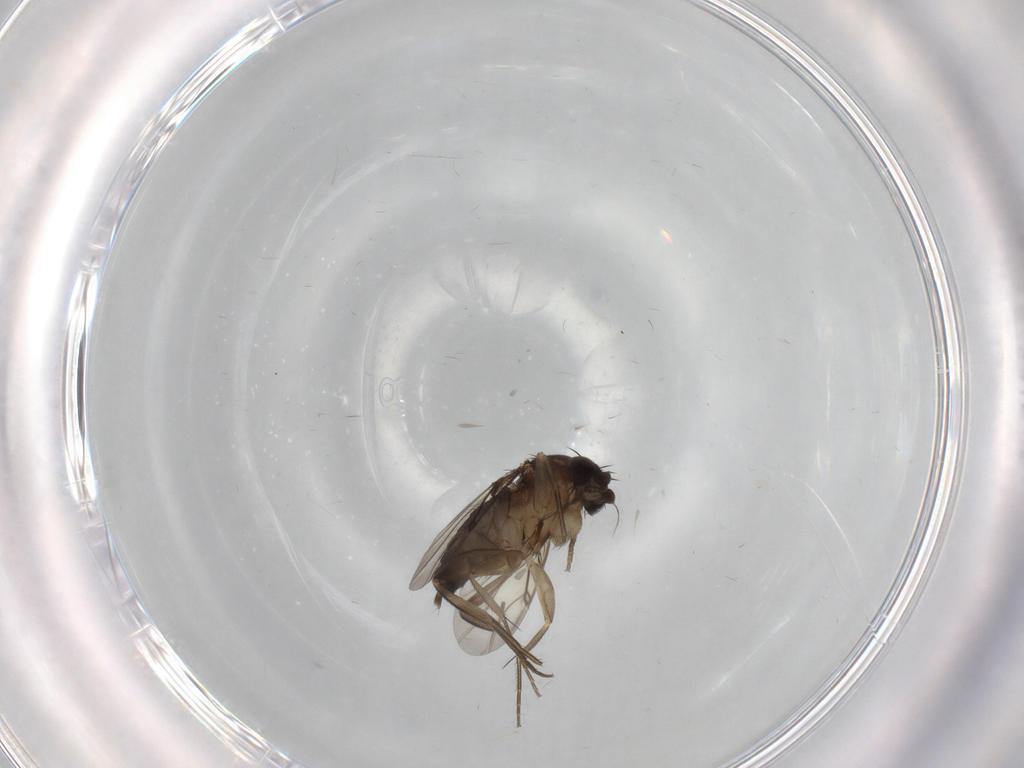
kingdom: Animalia
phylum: Arthropoda
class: Insecta
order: Diptera
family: Phoridae
